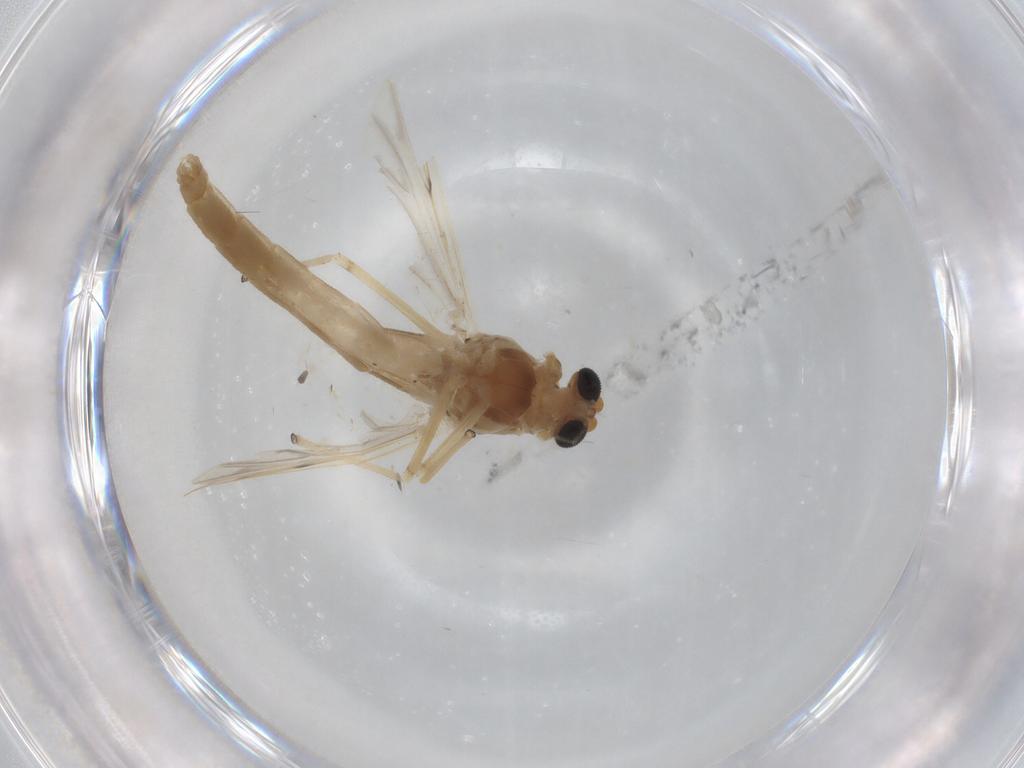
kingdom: Animalia
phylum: Arthropoda
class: Insecta
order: Diptera
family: Chironomidae
